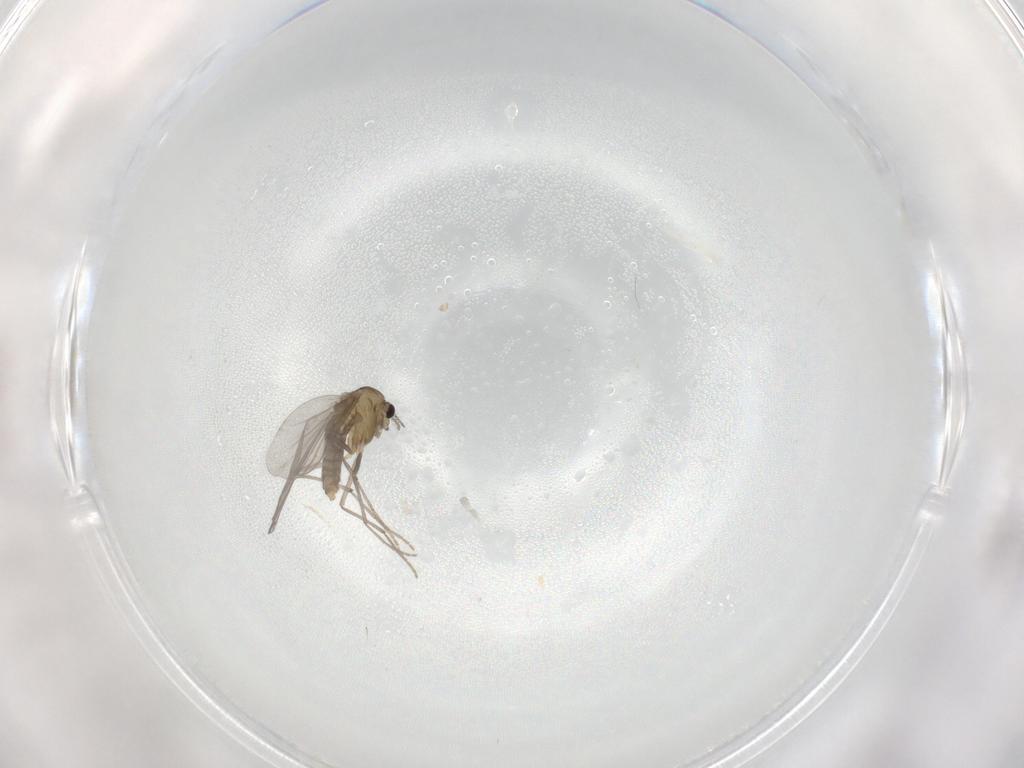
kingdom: Animalia
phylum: Arthropoda
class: Insecta
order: Diptera
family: Chironomidae
